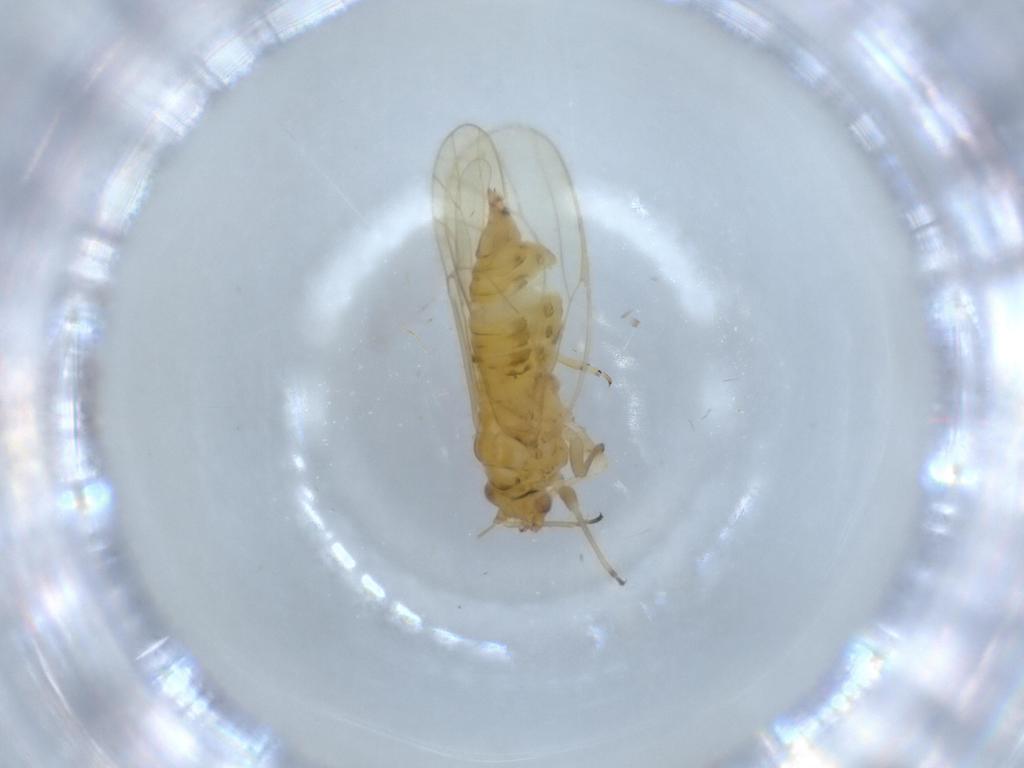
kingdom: Animalia
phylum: Arthropoda
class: Insecta
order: Hemiptera
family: Psyllidae
